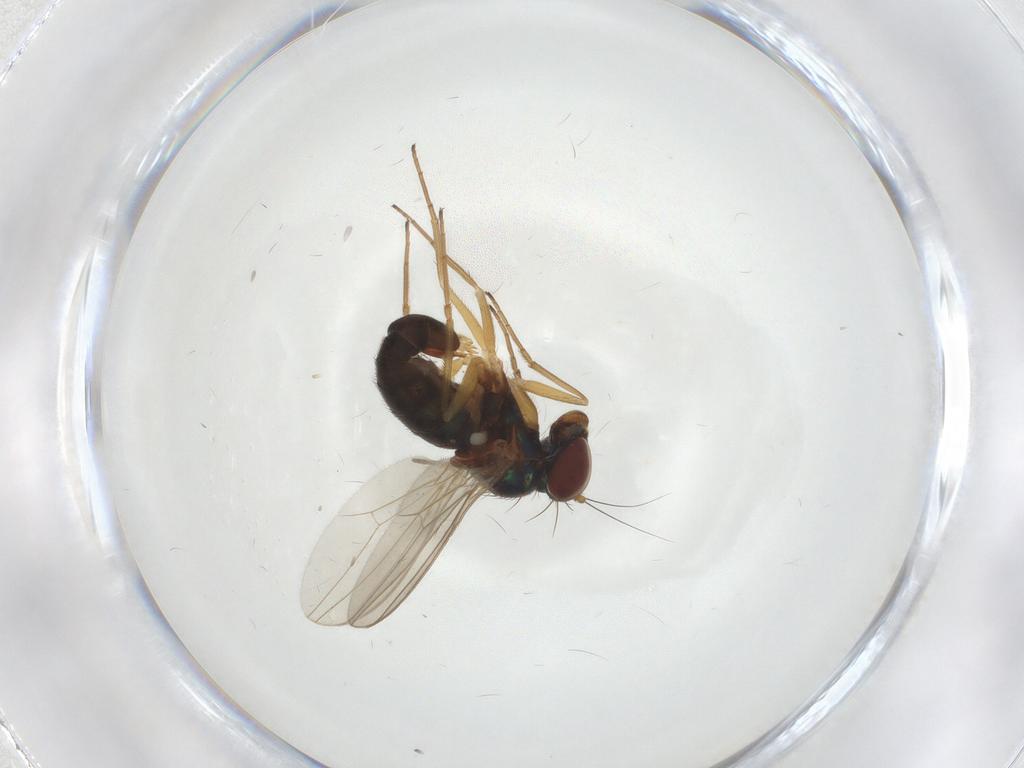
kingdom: Animalia
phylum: Arthropoda
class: Insecta
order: Diptera
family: Dolichopodidae
